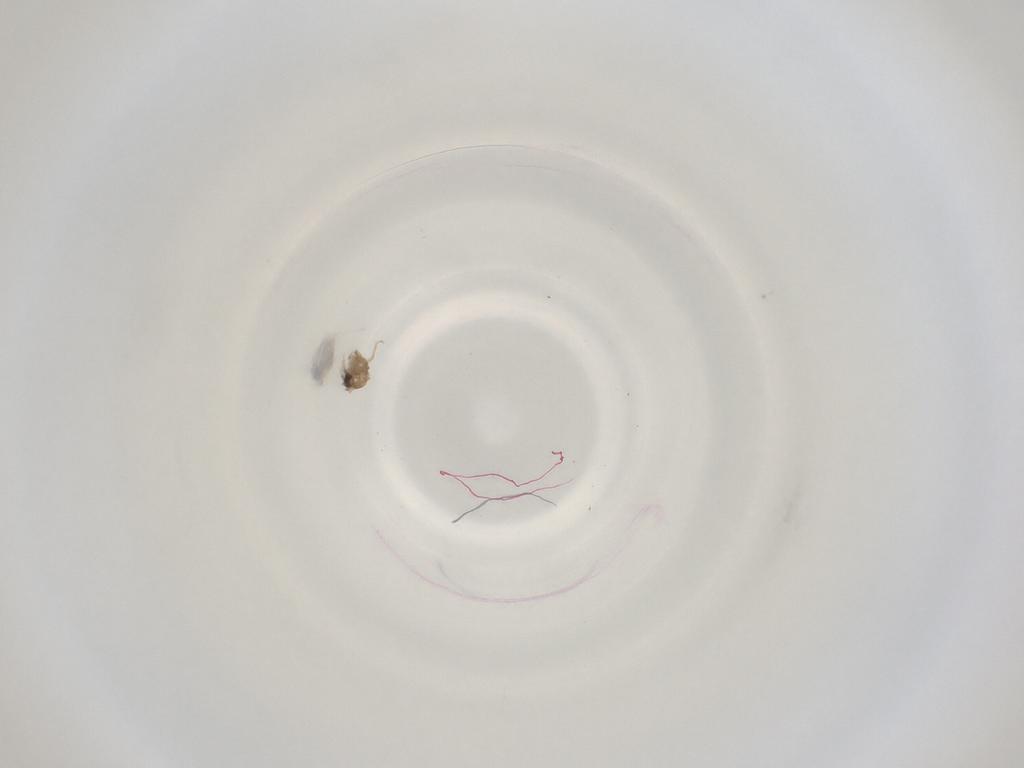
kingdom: Animalia
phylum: Arthropoda
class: Insecta
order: Diptera
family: Cecidomyiidae
